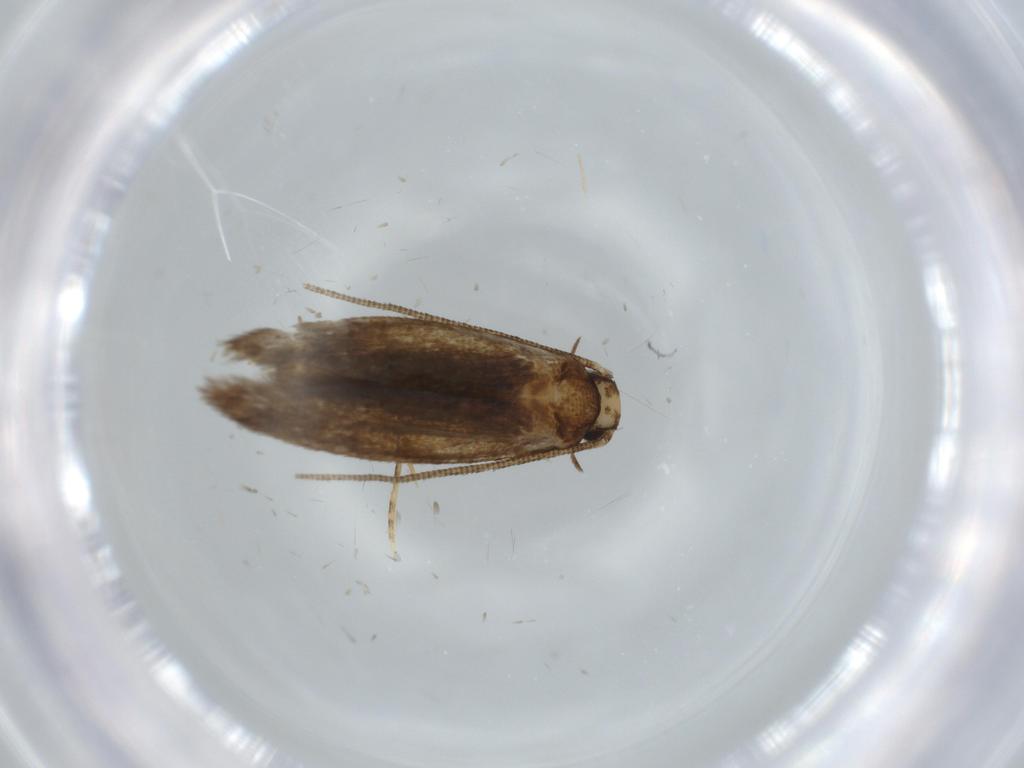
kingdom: Animalia
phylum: Arthropoda
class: Insecta
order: Lepidoptera
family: Tineidae
